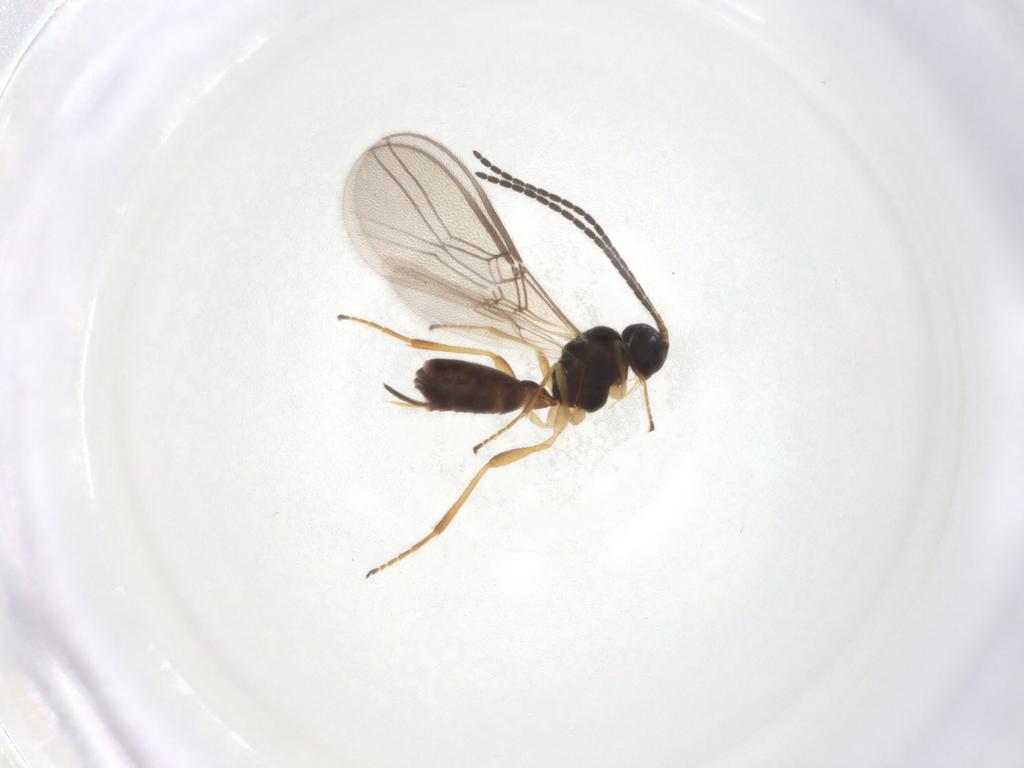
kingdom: Animalia
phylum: Arthropoda
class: Insecta
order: Hymenoptera
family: Braconidae
